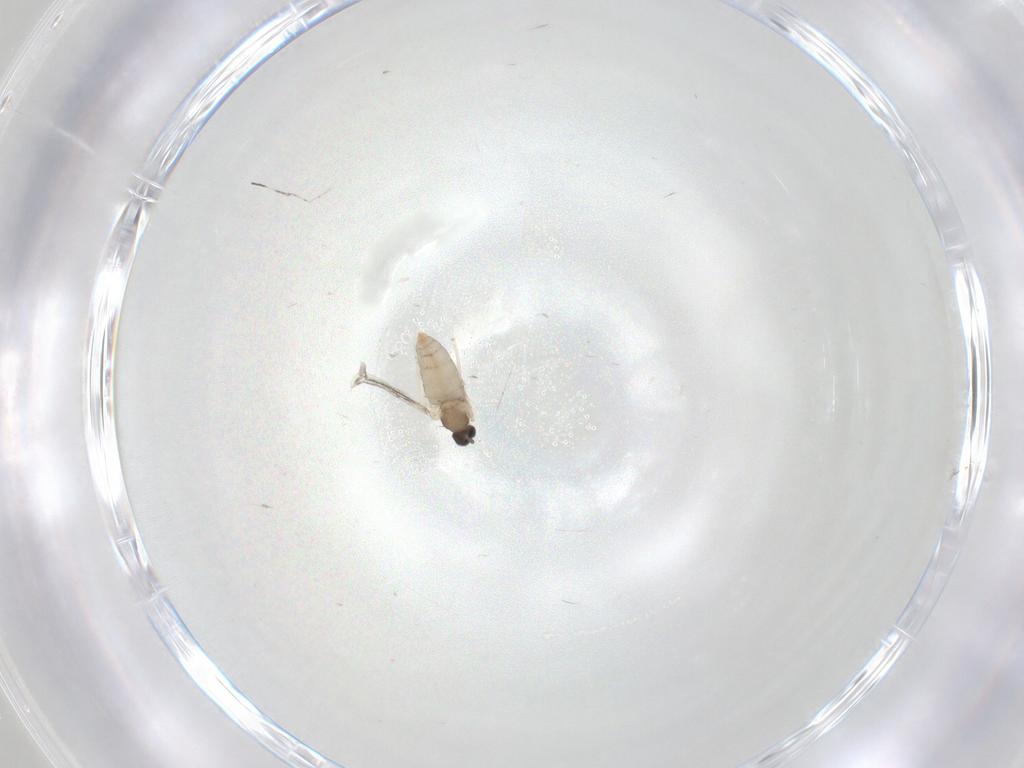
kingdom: Animalia
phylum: Arthropoda
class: Insecta
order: Diptera
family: Cecidomyiidae
